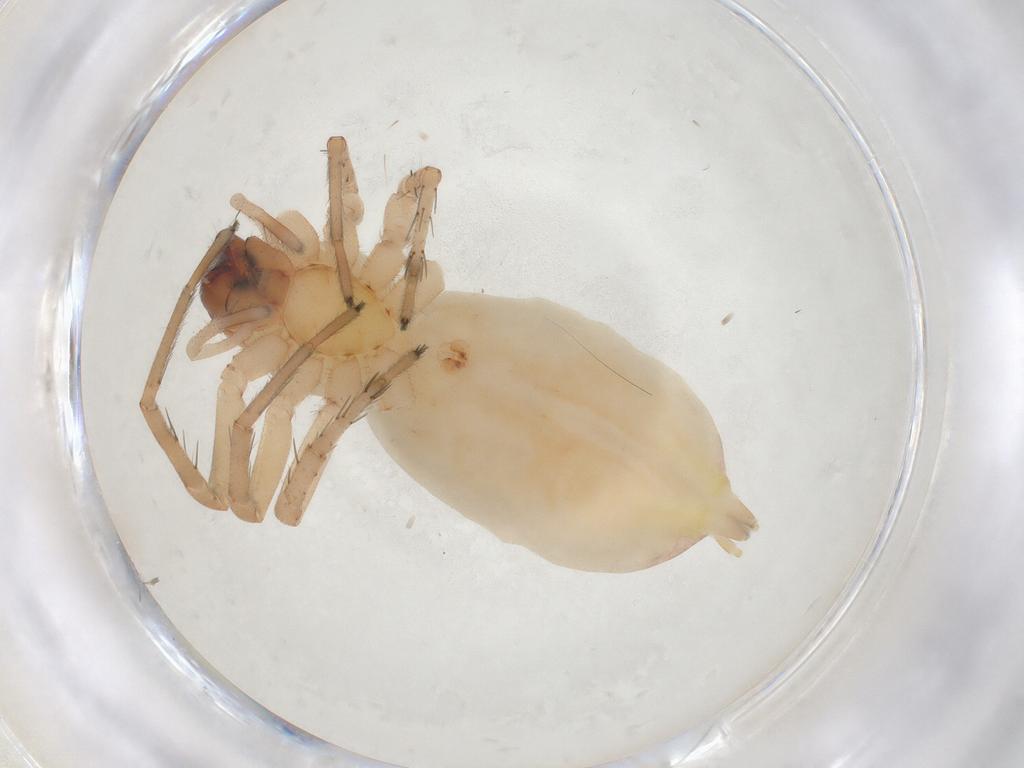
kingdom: Animalia
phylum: Arthropoda
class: Arachnida
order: Araneae
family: Anyphaenidae
